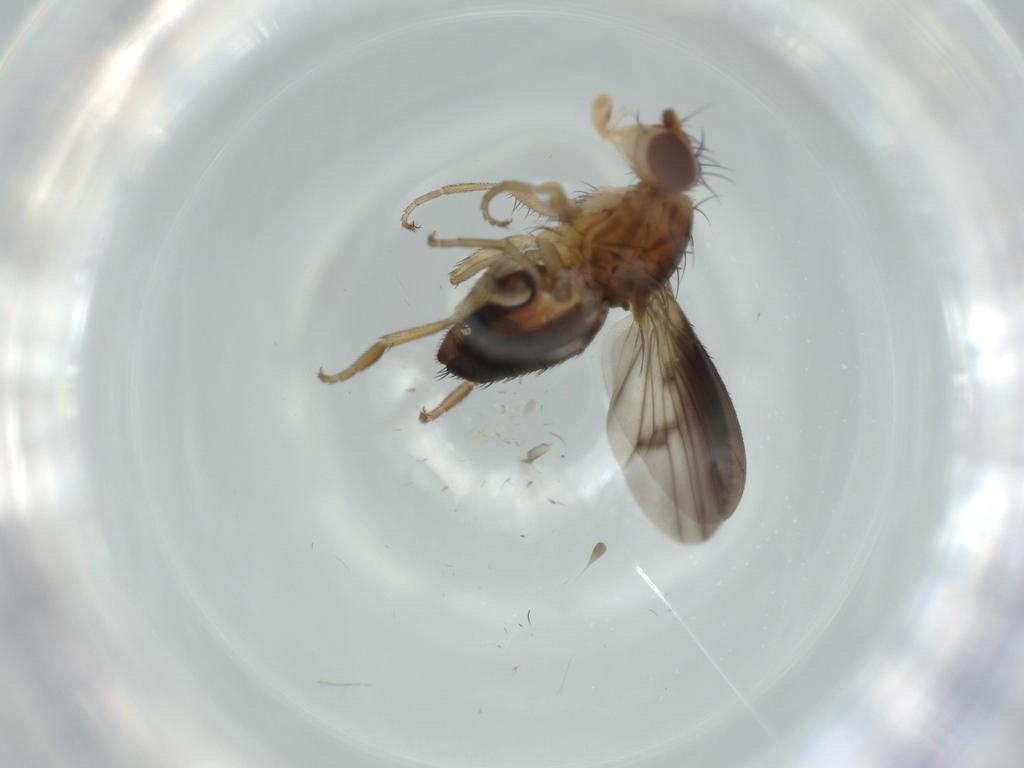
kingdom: Animalia
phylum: Arthropoda
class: Insecta
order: Diptera
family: Heleomyzidae
